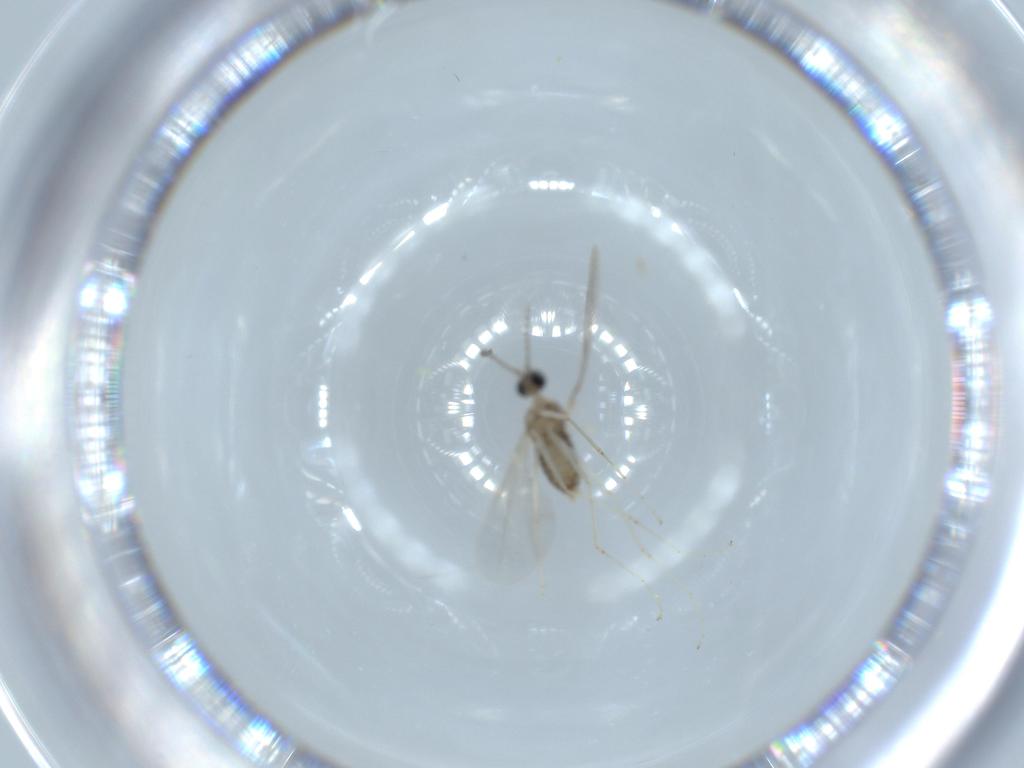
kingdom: Animalia
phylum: Arthropoda
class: Insecta
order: Diptera
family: Cecidomyiidae
